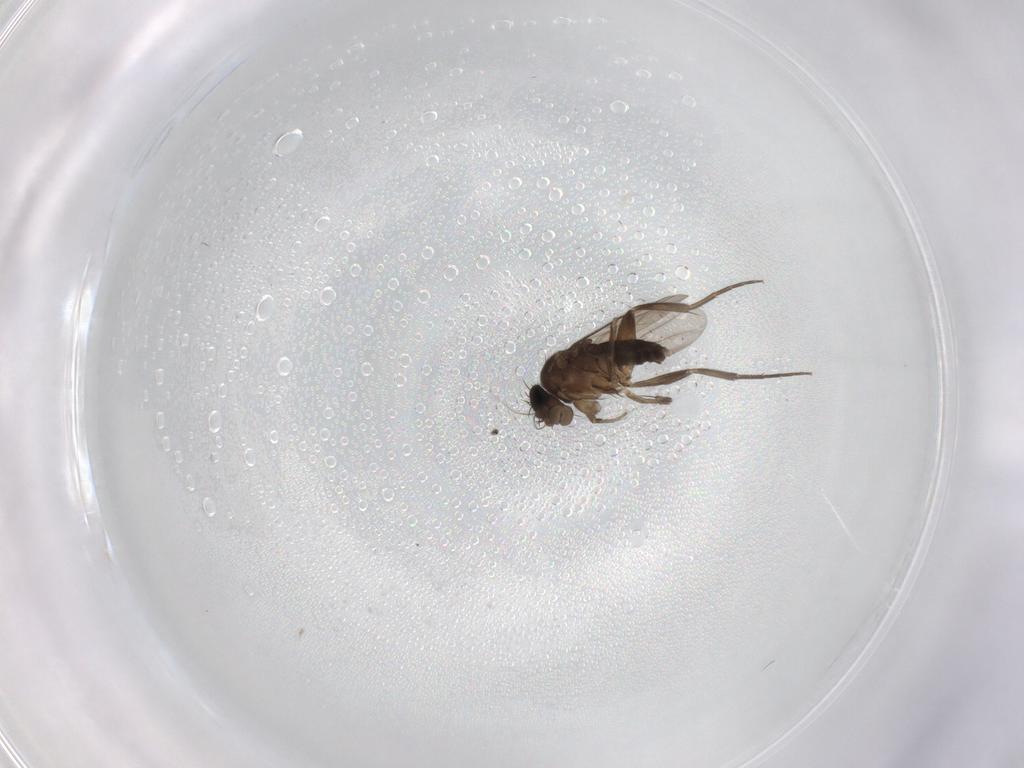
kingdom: Animalia
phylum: Arthropoda
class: Insecta
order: Diptera
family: Phoridae
